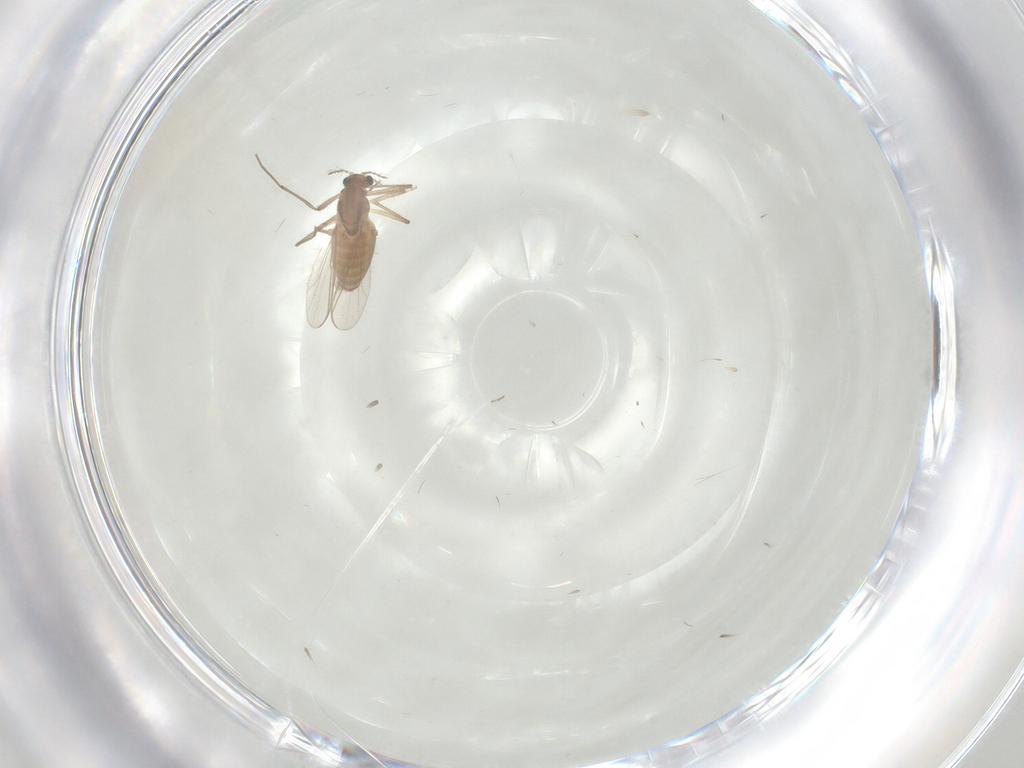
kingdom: Animalia
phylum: Arthropoda
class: Insecta
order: Diptera
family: Chironomidae
